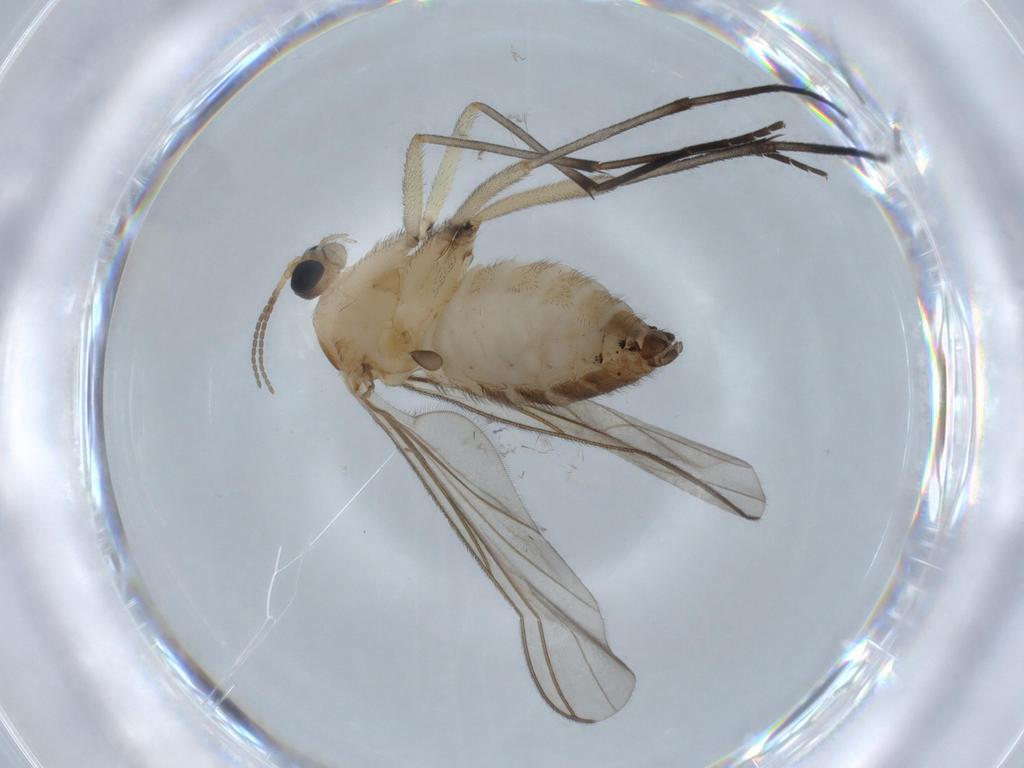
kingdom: Animalia
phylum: Arthropoda
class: Insecta
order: Diptera
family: Sciaridae
